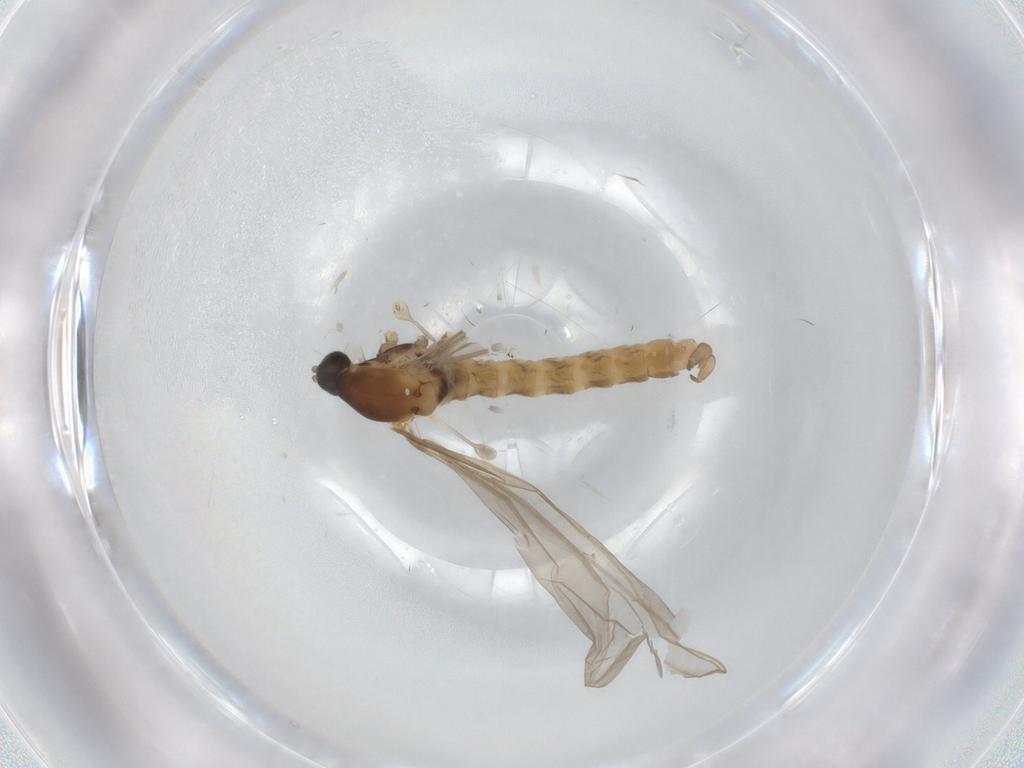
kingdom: Animalia
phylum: Arthropoda
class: Insecta
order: Diptera
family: Cecidomyiidae
